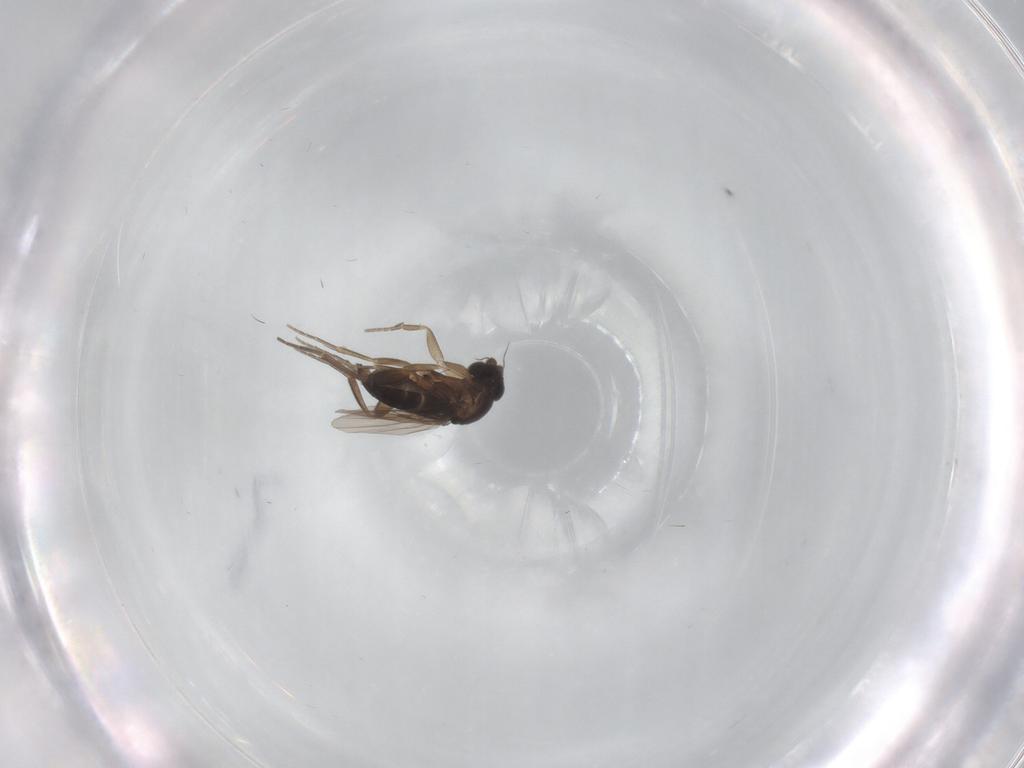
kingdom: Animalia
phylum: Arthropoda
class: Insecta
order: Diptera
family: Phoridae
